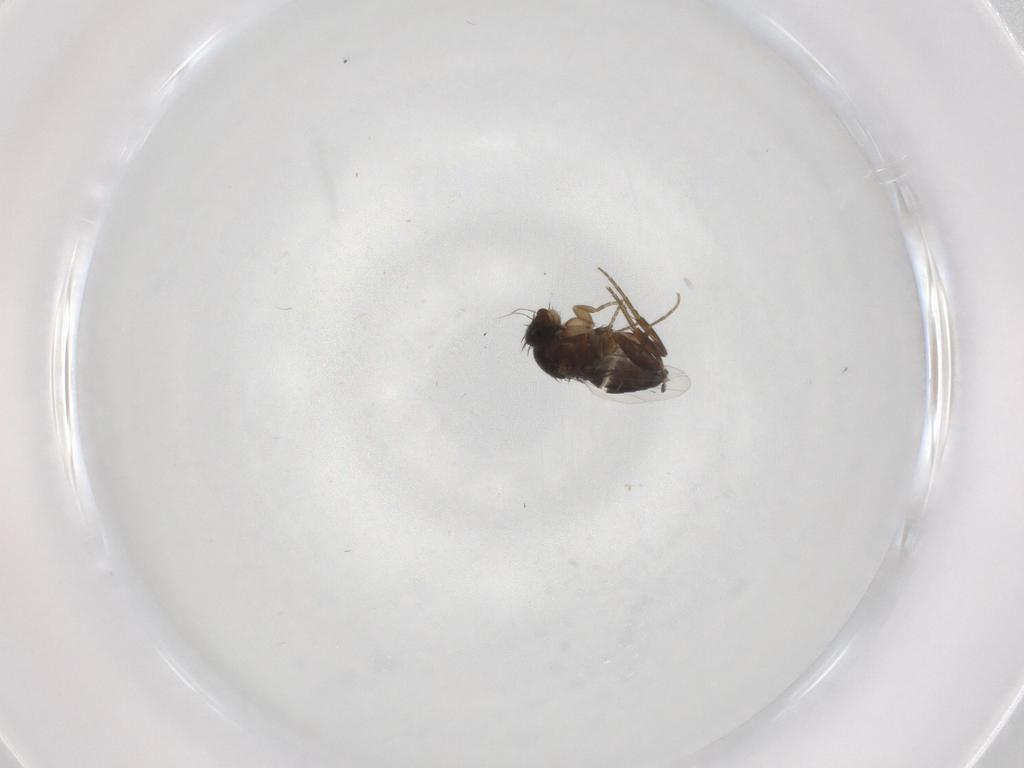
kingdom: Animalia
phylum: Arthropoda
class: Insecta
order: Diptera
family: Phoridae
